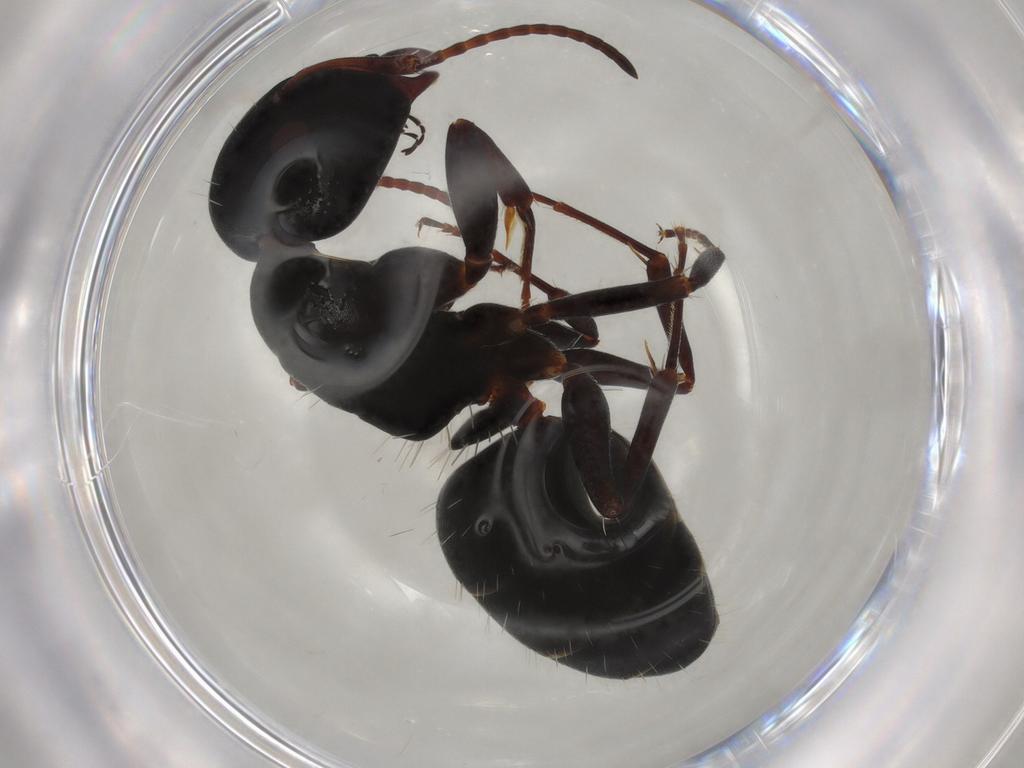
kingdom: Animalia
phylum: Arthropoda
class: Insecta
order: Hymenoptera
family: Formicidae
